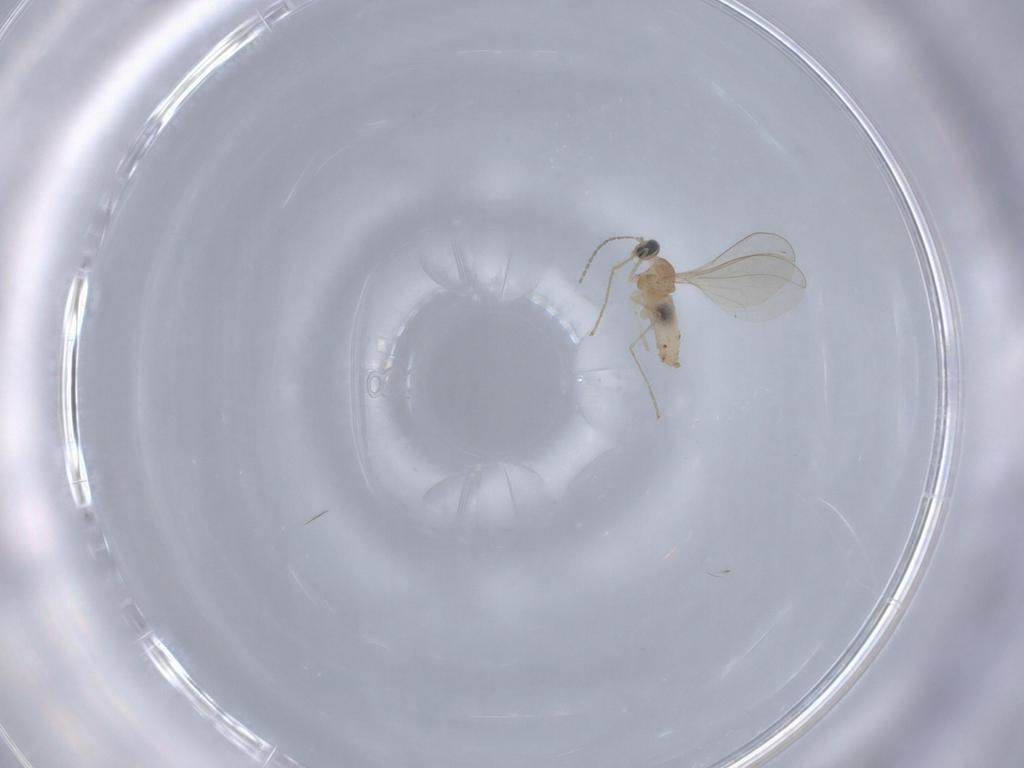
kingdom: Animalia
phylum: Arthropoda
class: Insecta
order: Diptera
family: Cecidomyiidae
